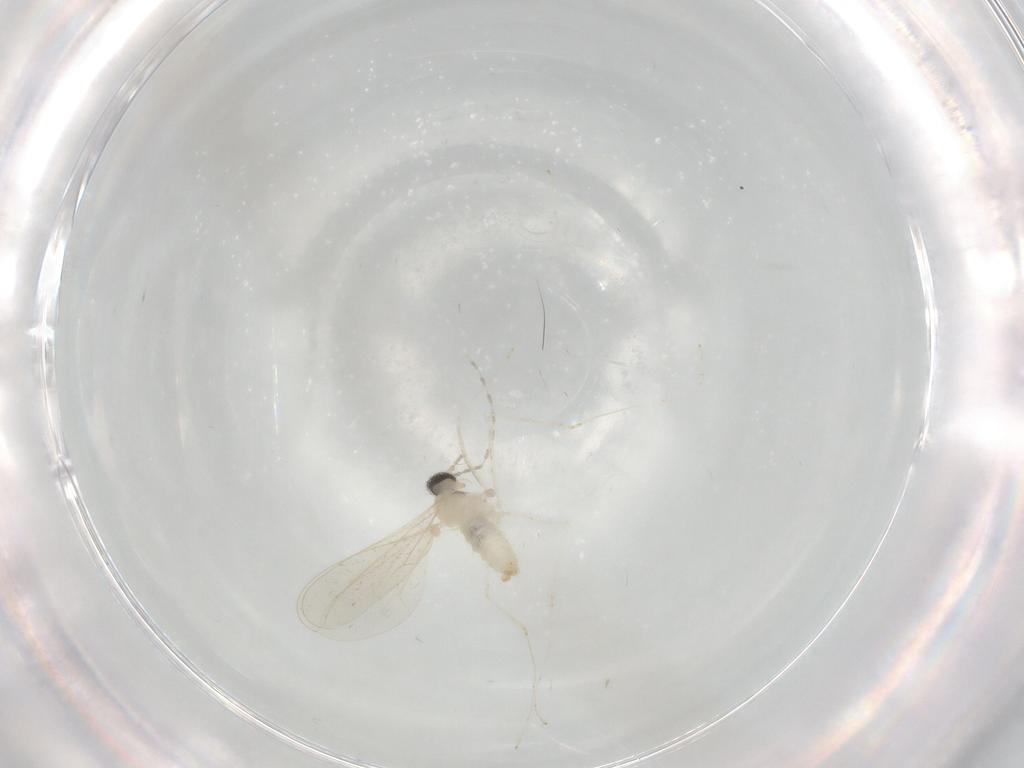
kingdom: Animalia
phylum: Arthropoda
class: Insecta
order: Diptera
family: Cecidomyiidae
